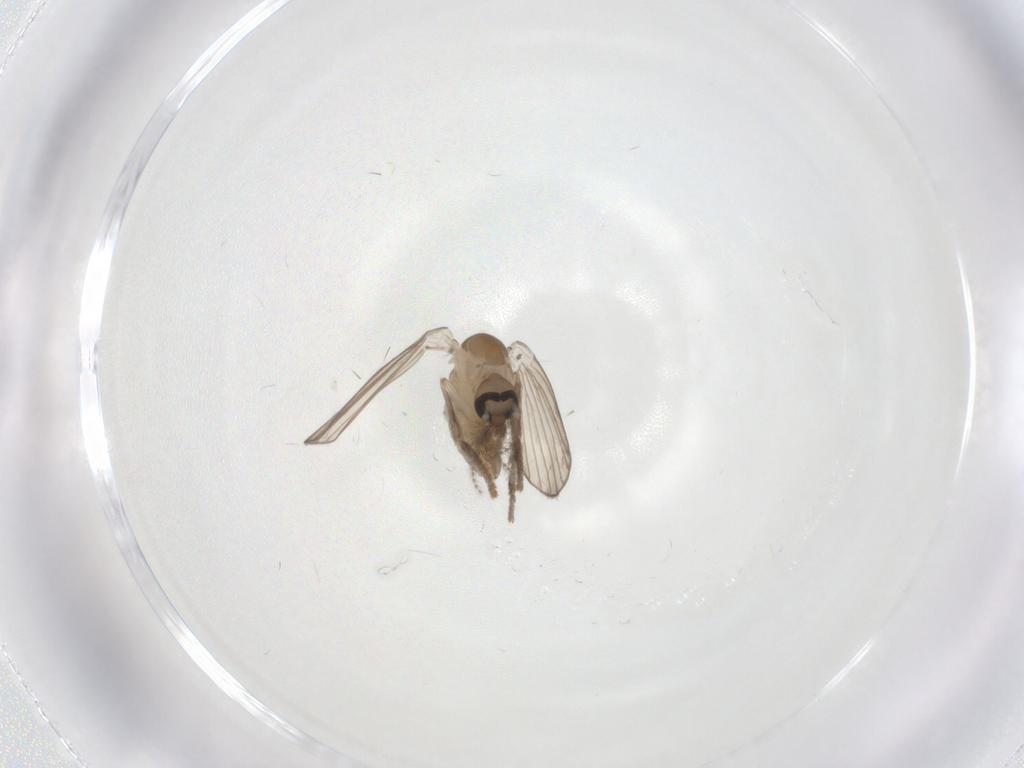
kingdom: Animalia
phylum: Arthropoda
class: Insecta
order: Diptera
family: Psychodidae
